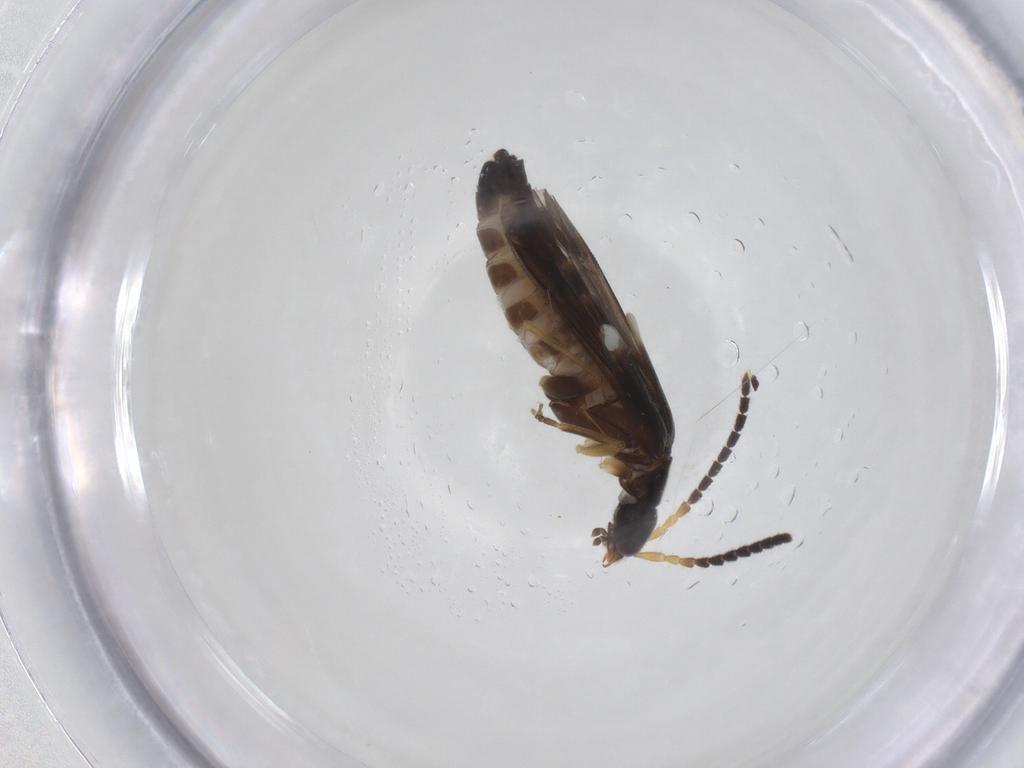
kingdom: Animalia
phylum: Arthropoda
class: Insecta
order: Coleoptera
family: Cantharidae
